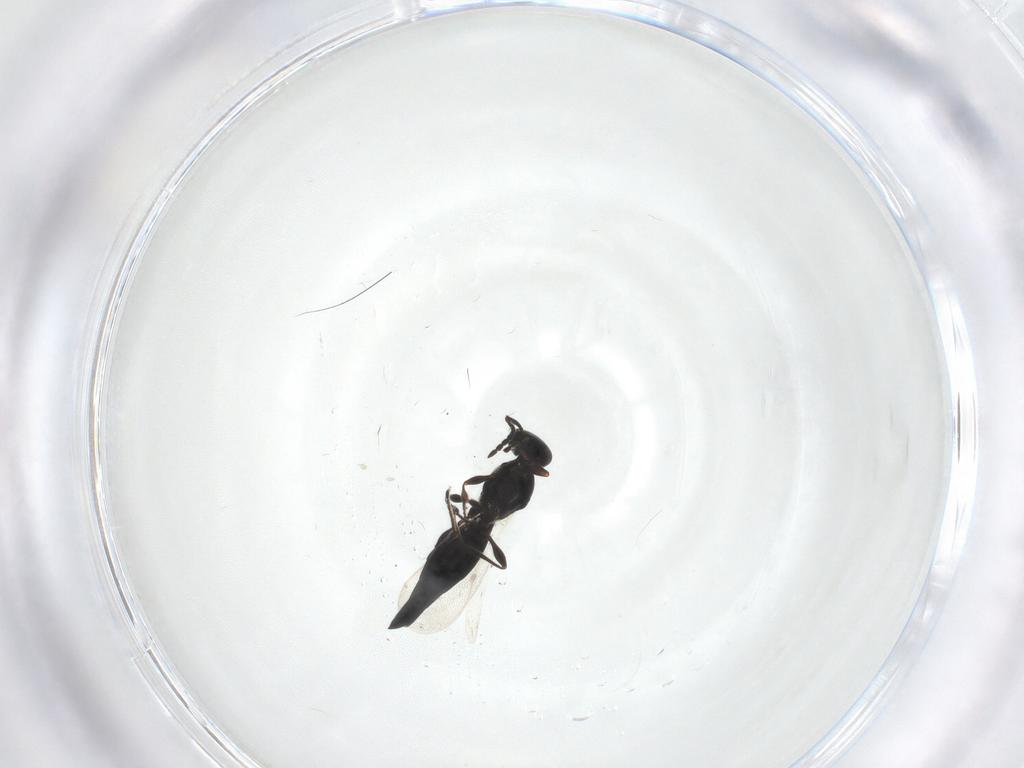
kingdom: Animalia
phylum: Arthropoda
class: Insecta
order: Hymenoptera
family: Platygastridae
